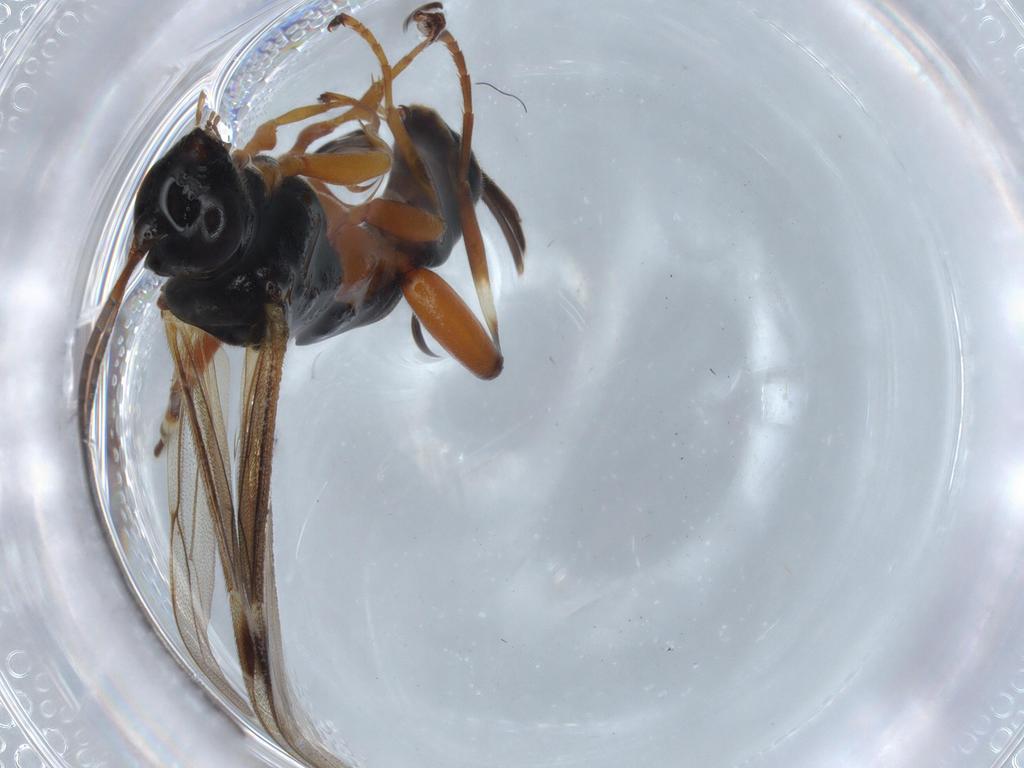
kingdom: Animalia
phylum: Arthropoda
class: Insecta
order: Hymenoptera
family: Ichneumonidae
